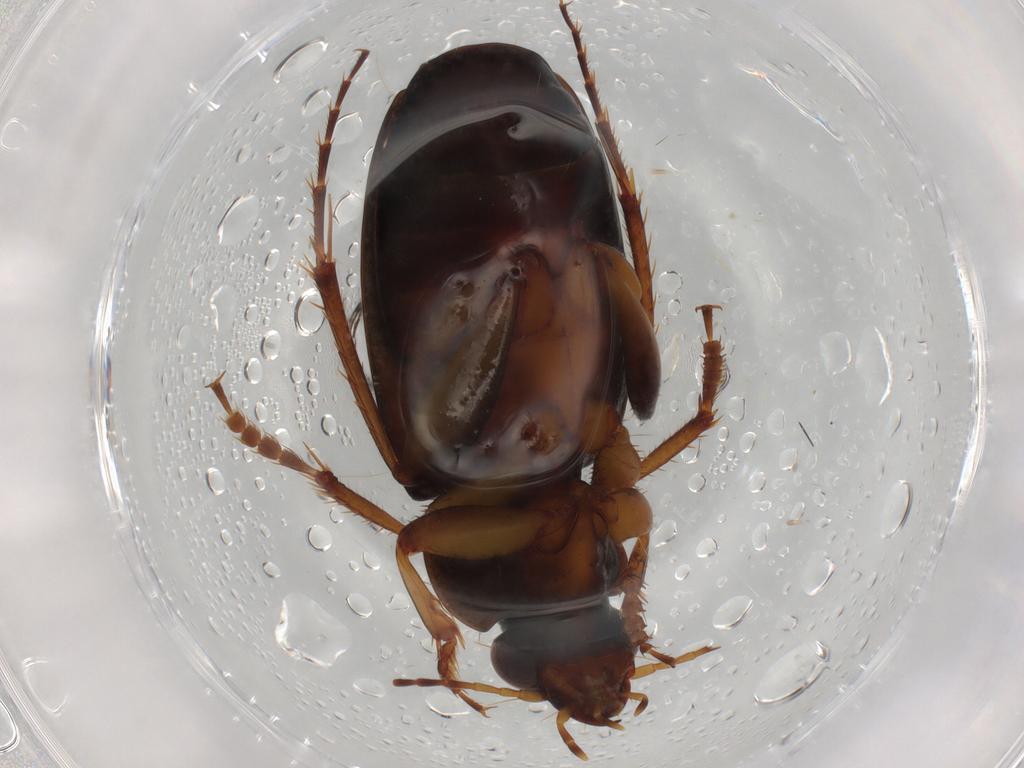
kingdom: Animalia
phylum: Arthropoda
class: Insecta
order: Coleoptera
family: Carabidae
